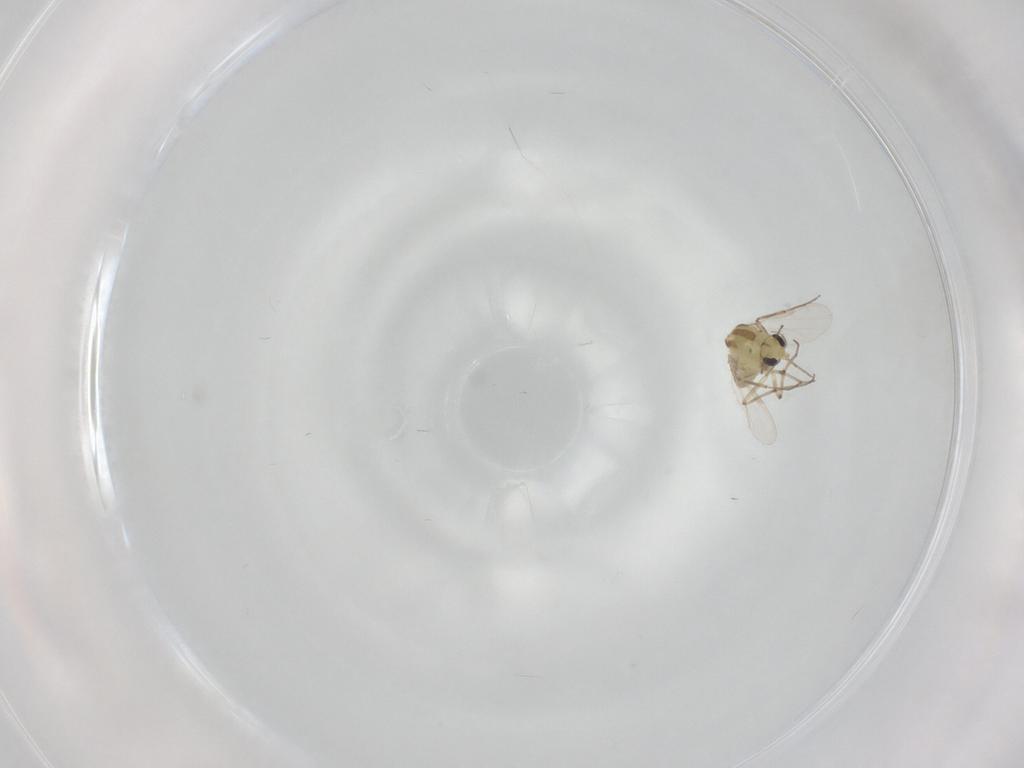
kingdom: Animalia
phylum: Arthropoda
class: Insecta
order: Diptera
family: Chironomidae
